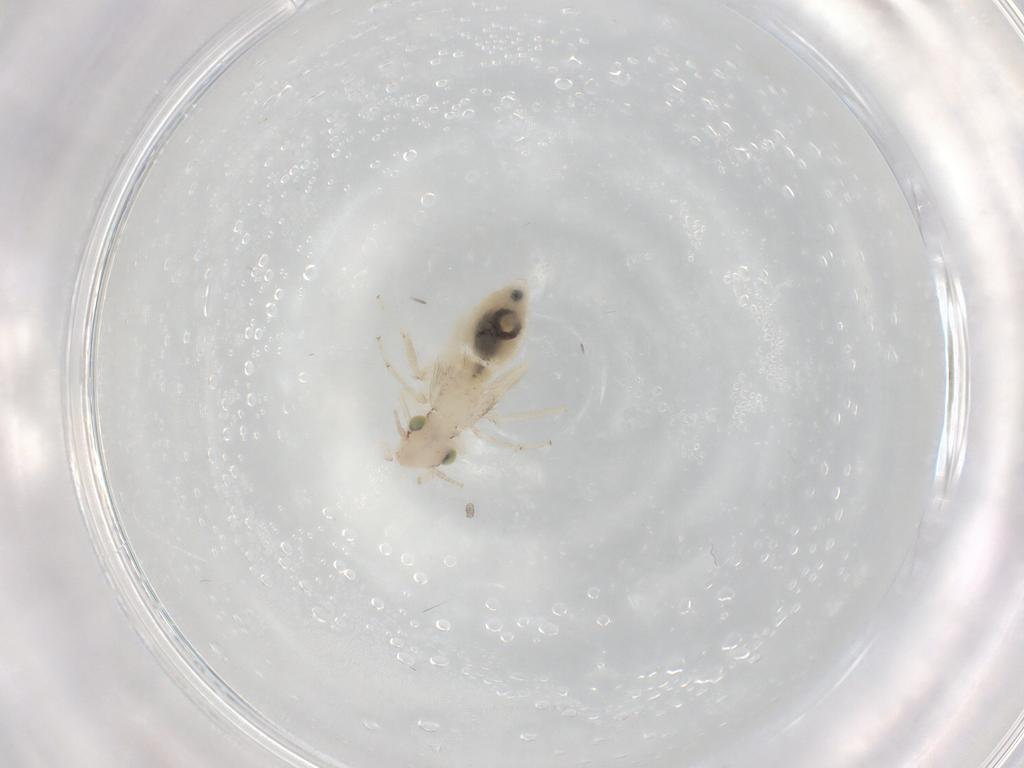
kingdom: Animalia
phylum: Arthropoda
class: Insecta
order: Psocodea
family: Lepidopsocidae
